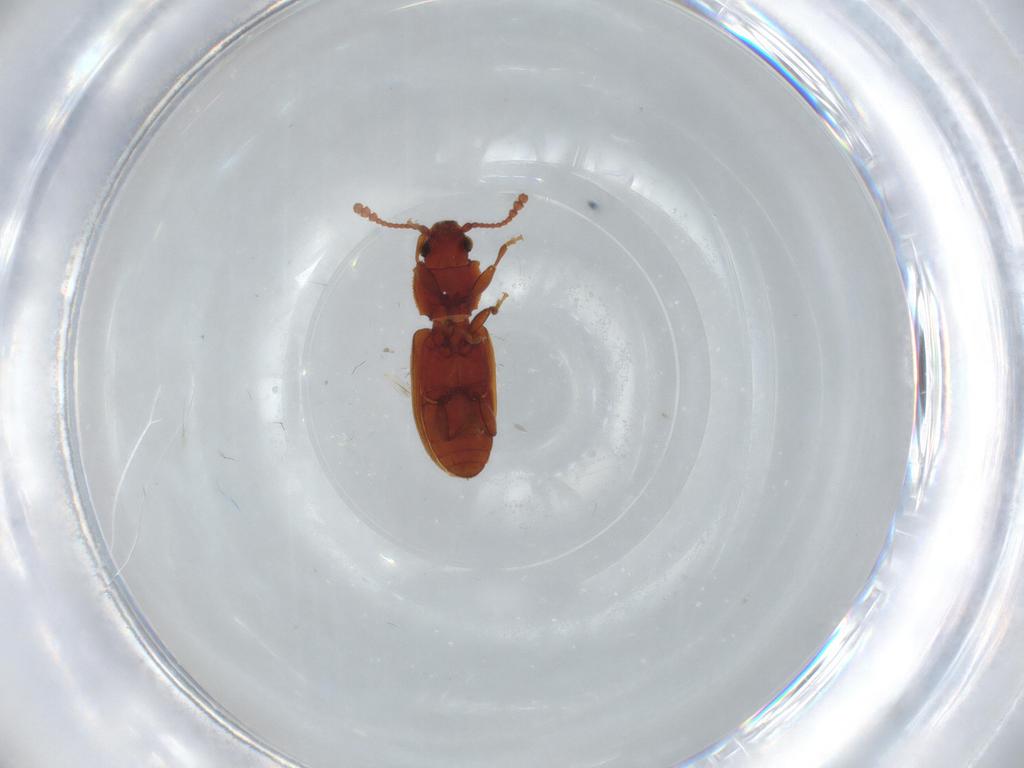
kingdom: Animalia
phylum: Arthropoda
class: Insecta
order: Coleoptera
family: Silvanidae
